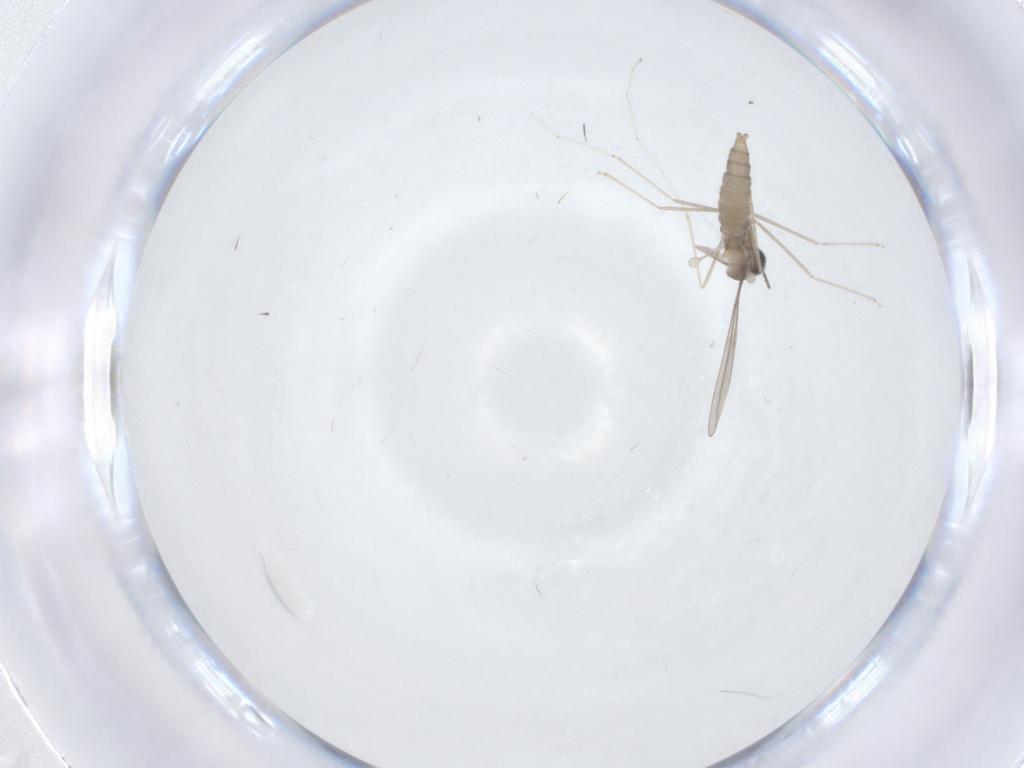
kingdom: Animalia
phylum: Arthropoda
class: Insecta
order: Diptera
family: Cecidomyiidae
